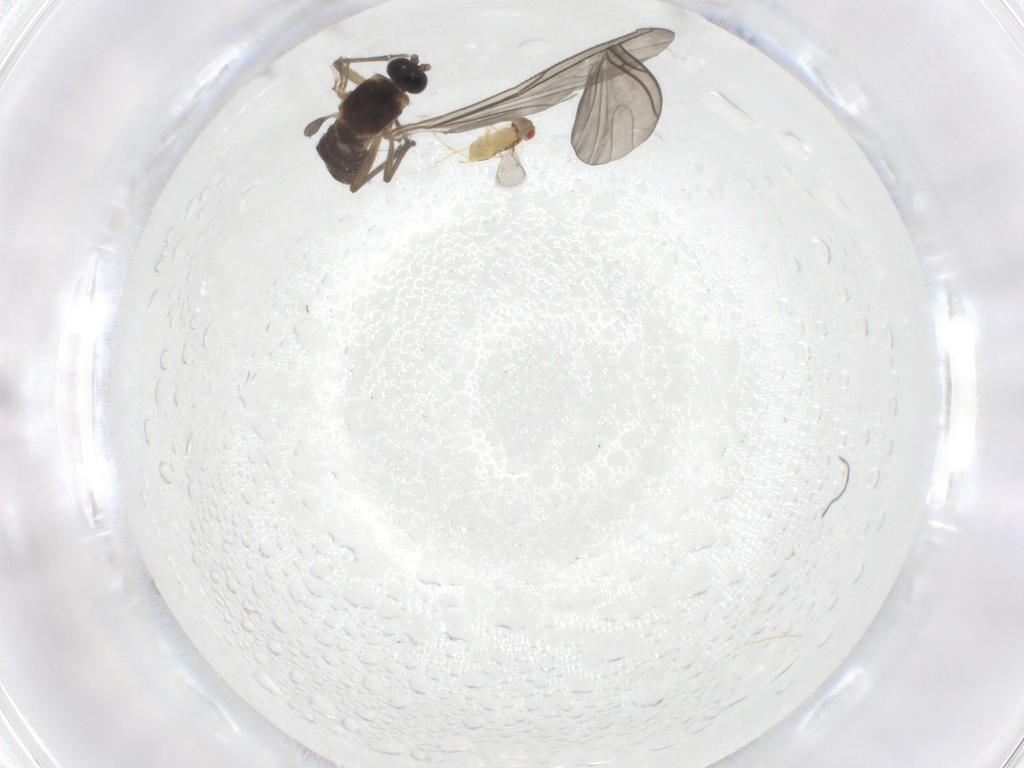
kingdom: Animalia
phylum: Arthropoda
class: Insecta
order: Diptera
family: Sciaridae
